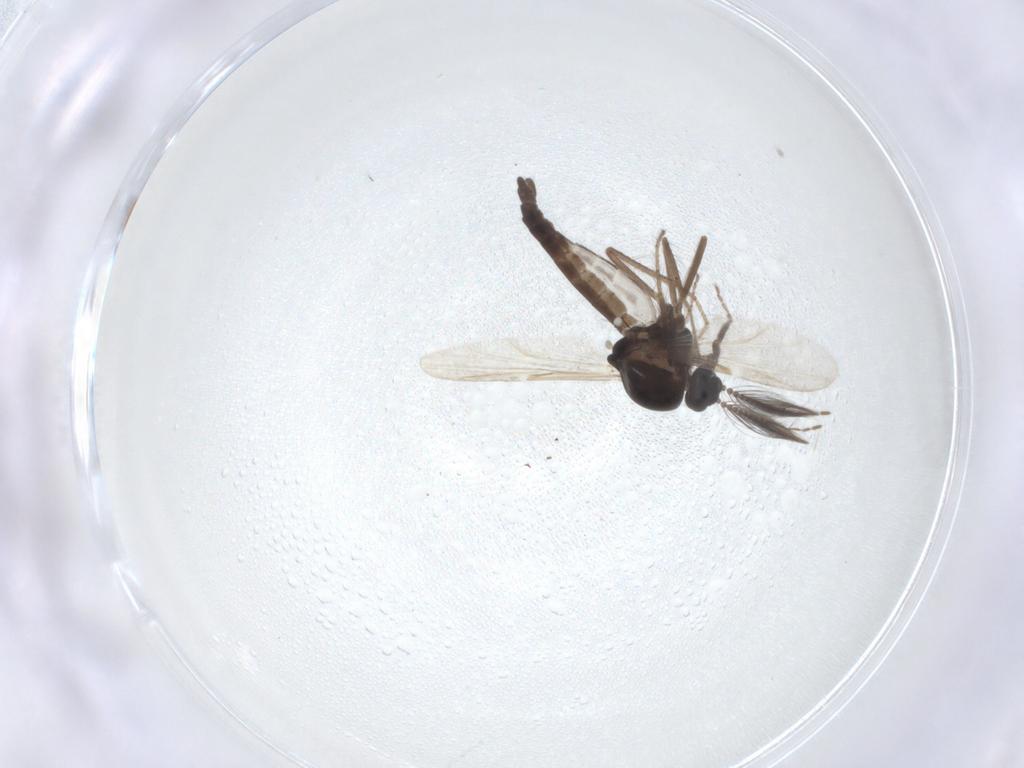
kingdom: Animalia
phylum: Arthropoda
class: Insecta
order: Diptera
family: Ceratopogonidae
